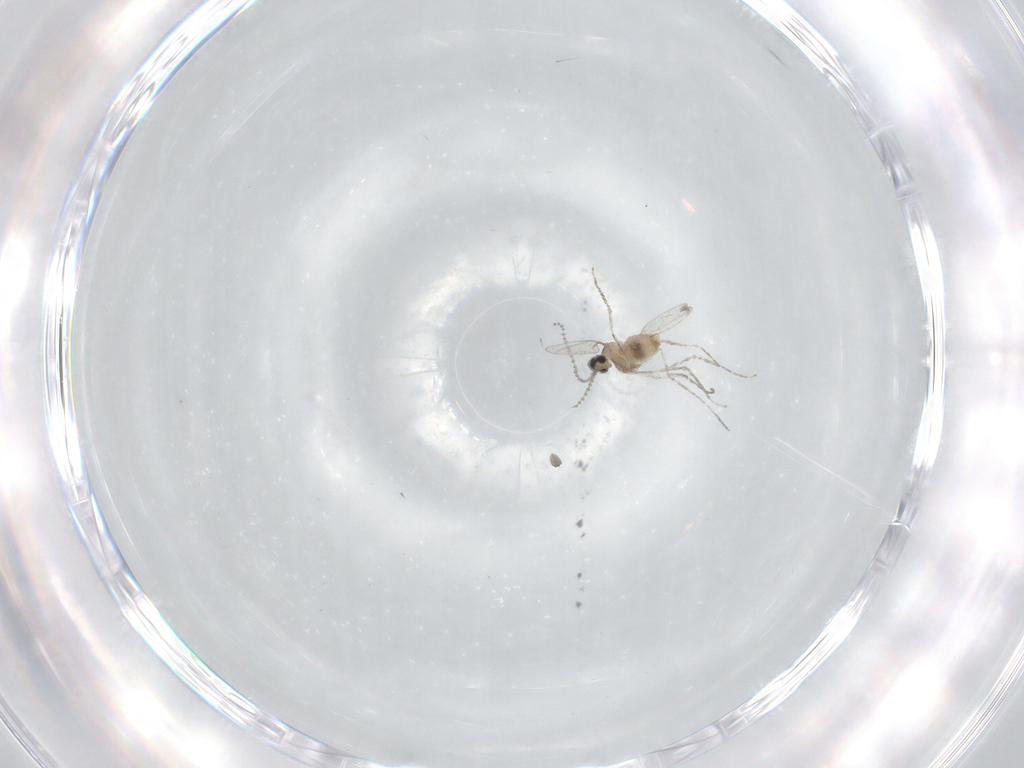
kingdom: Animalia
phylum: Arthropoda
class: Insecta
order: Diptera
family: Cecidomyiidae
